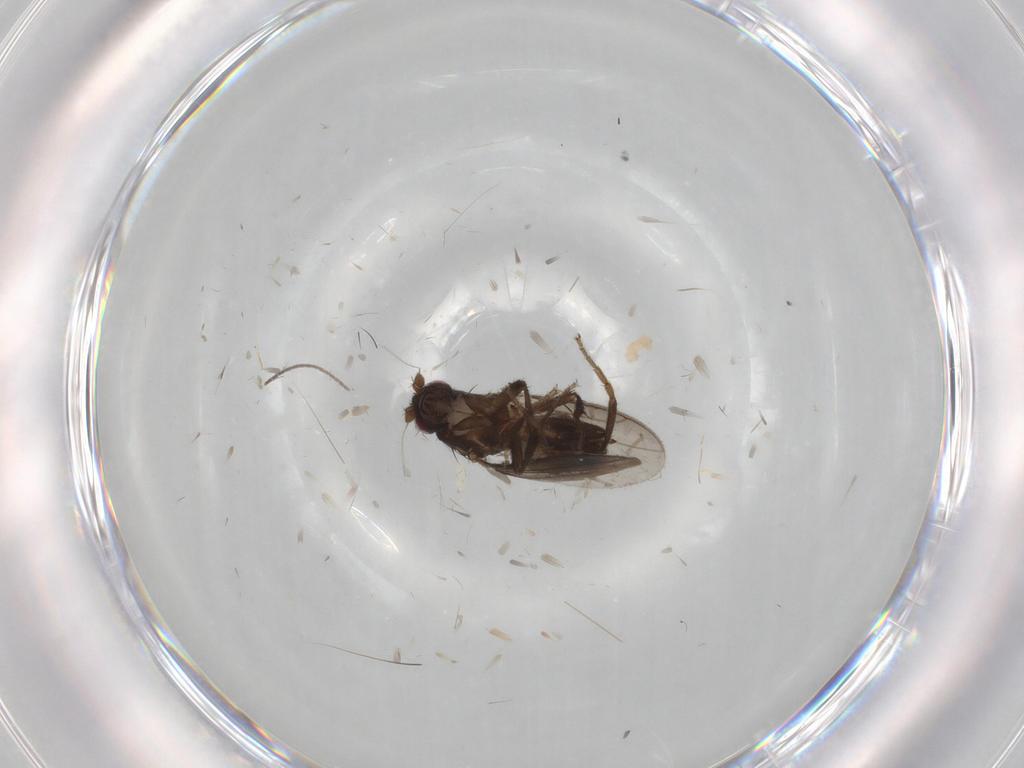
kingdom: Animalia
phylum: Arthropoda
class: Insecta
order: Diptera
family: Sphaeroceridae
